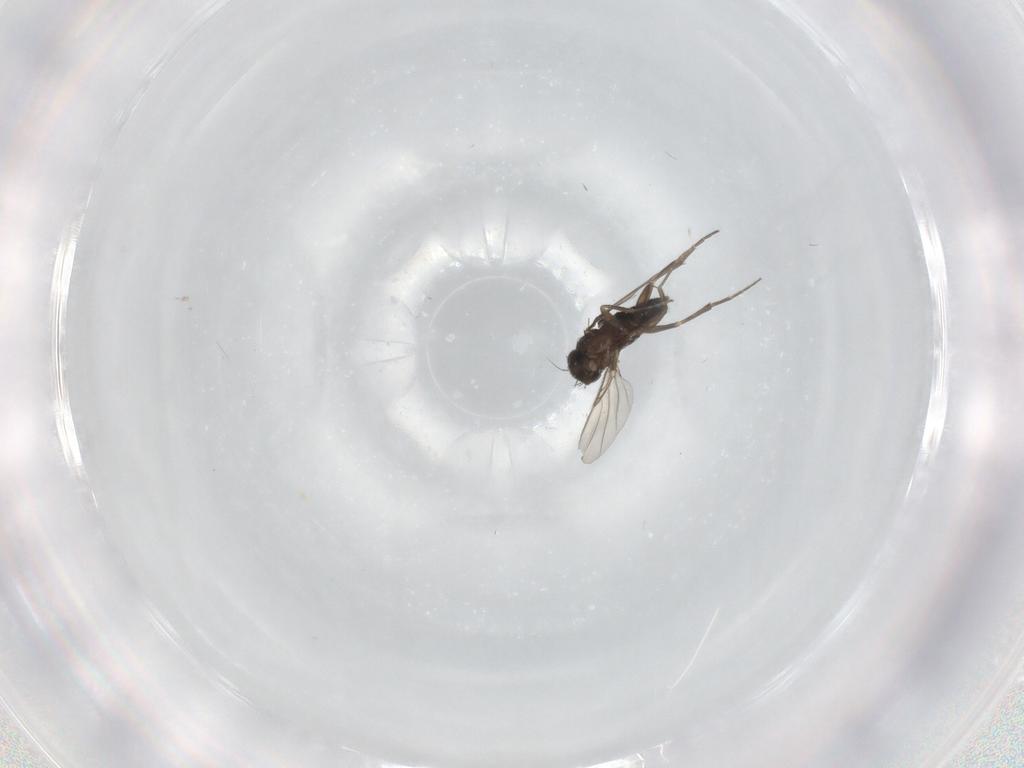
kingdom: Animalia
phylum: Arthropoda
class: Insecta
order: Diptera
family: Phoridae
